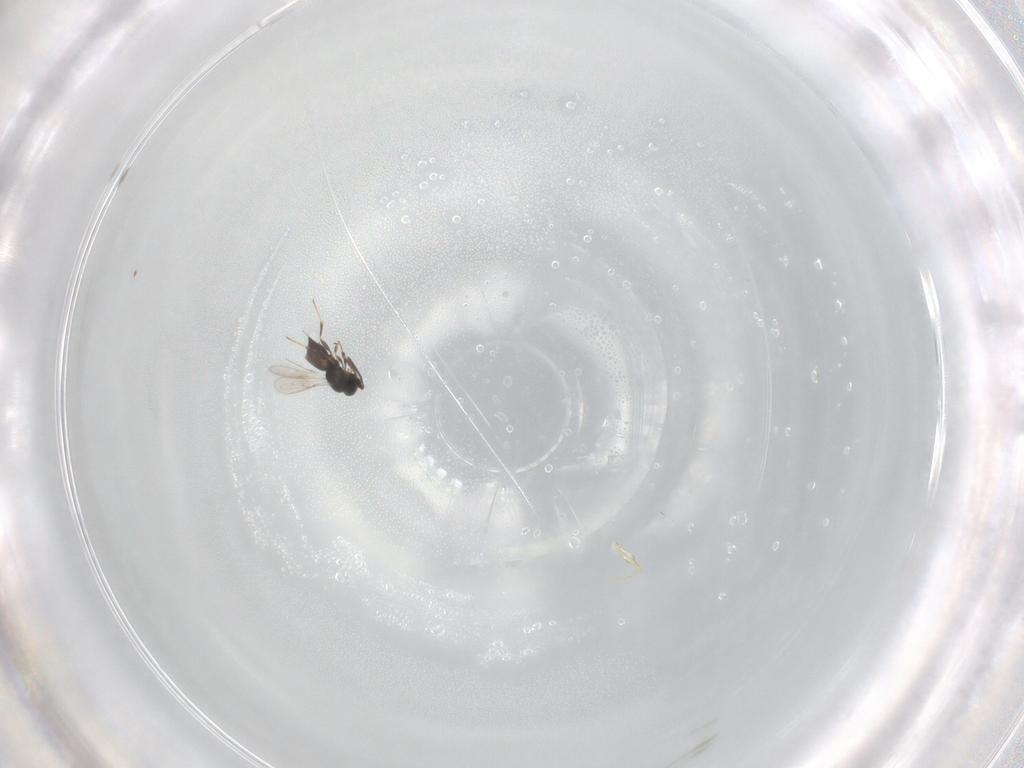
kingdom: Animalia
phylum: Arthropoda
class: Insecta
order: Hymenoptera
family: Scelionidae
